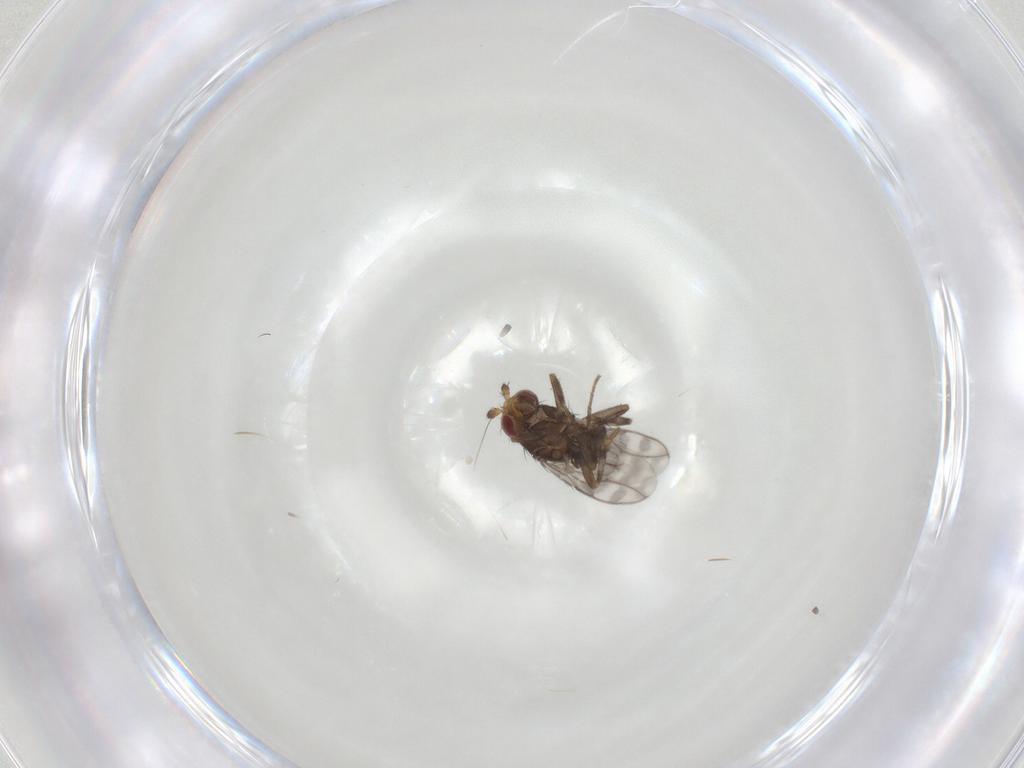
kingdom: Animalia
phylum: Arthropoda
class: Insecta
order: Diptera
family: Sphaeroceridae
